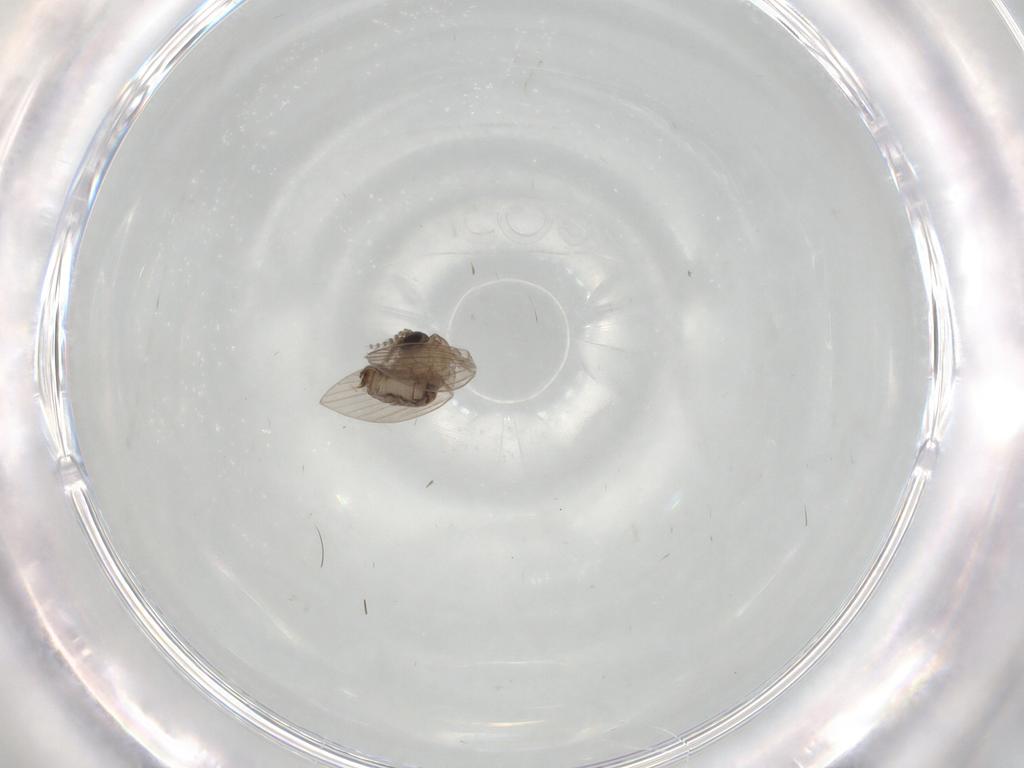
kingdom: Animalia
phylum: Arthropoda
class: Insecta
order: Diptera
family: Psychodidae
